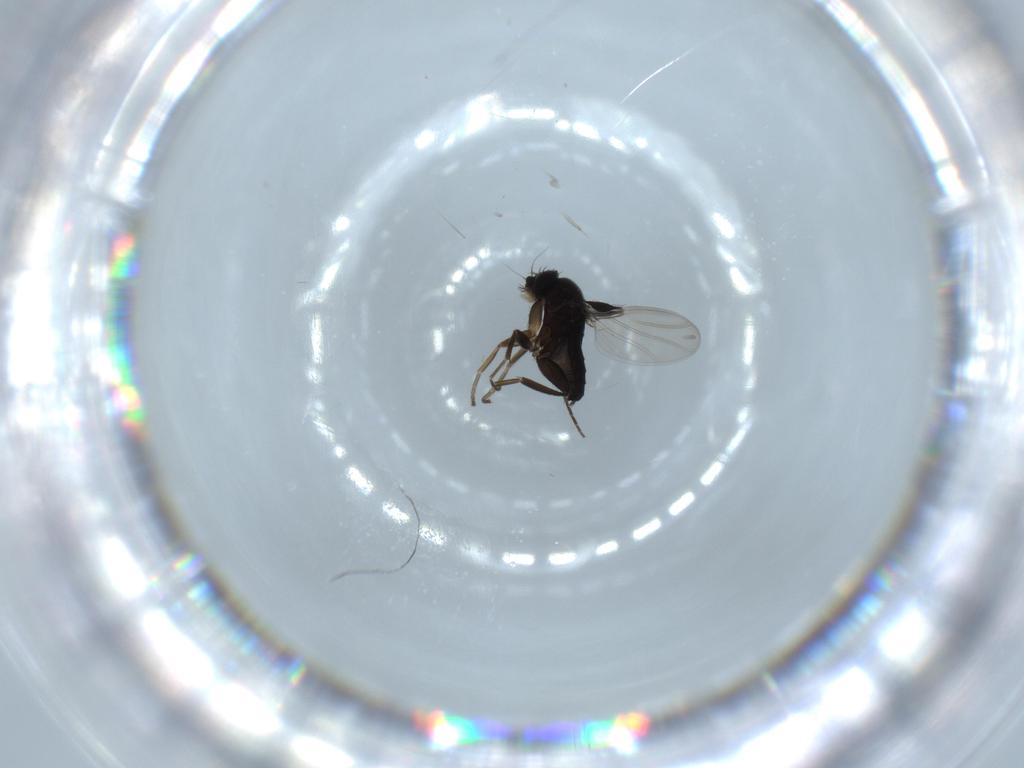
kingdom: Animalia
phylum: Arthropoda
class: Insecta
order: Diptera
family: Phoridae
